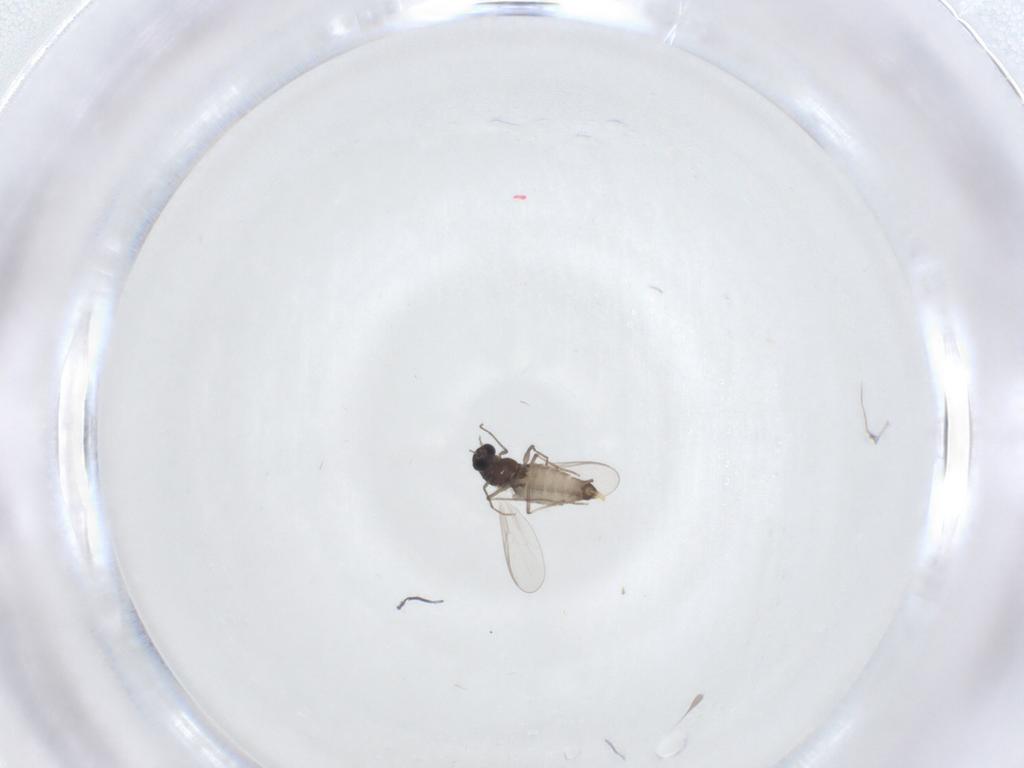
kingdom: Animalia
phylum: Arthropoda
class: Insecta
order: Diptera
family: Chironomidae
